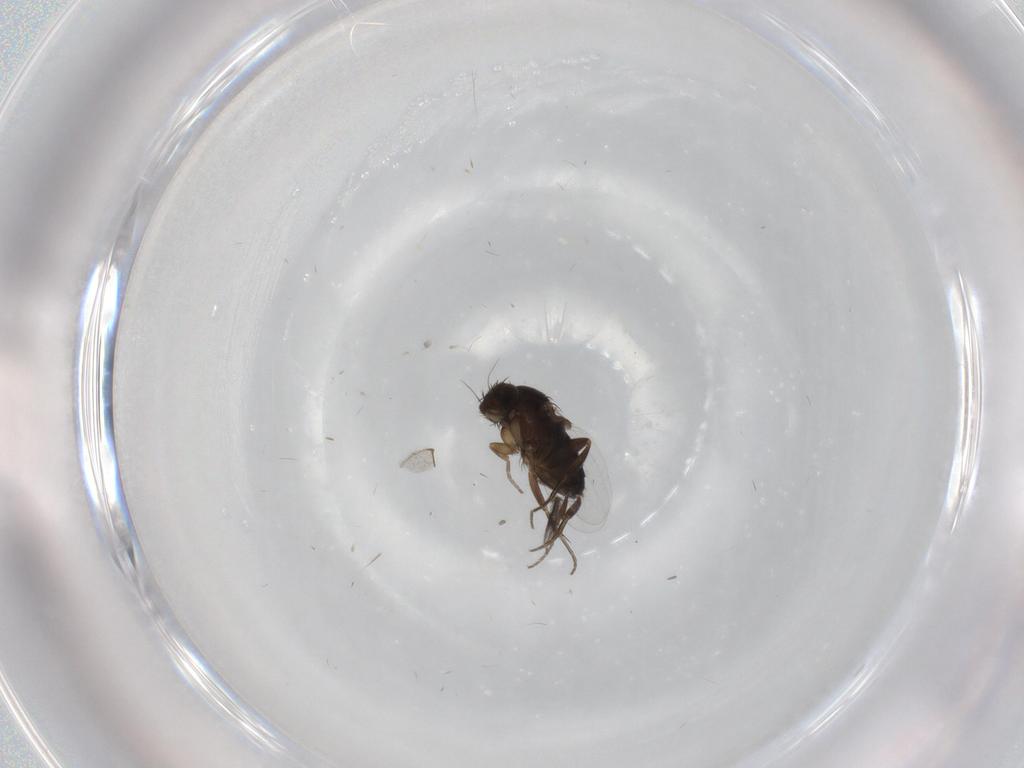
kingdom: Animalia
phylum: Arthropoda
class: Insecta
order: Diptera
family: Phoridae
